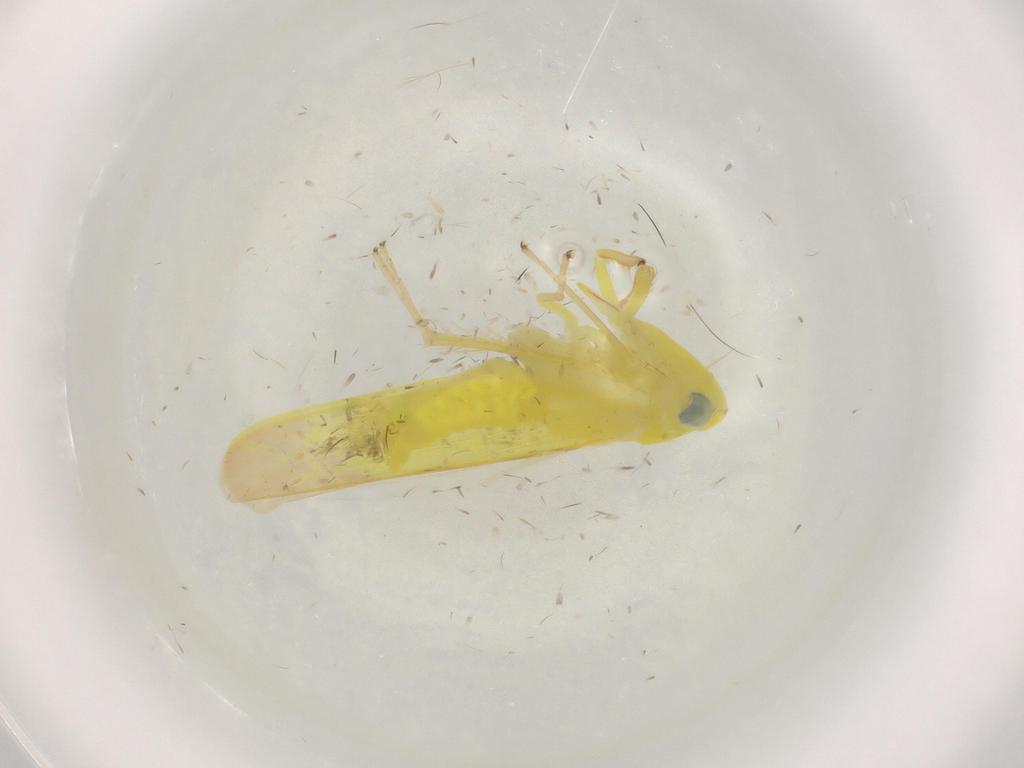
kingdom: Animalia
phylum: Arthropoda
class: Insecta
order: Hemiptera
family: Cicadellidae
